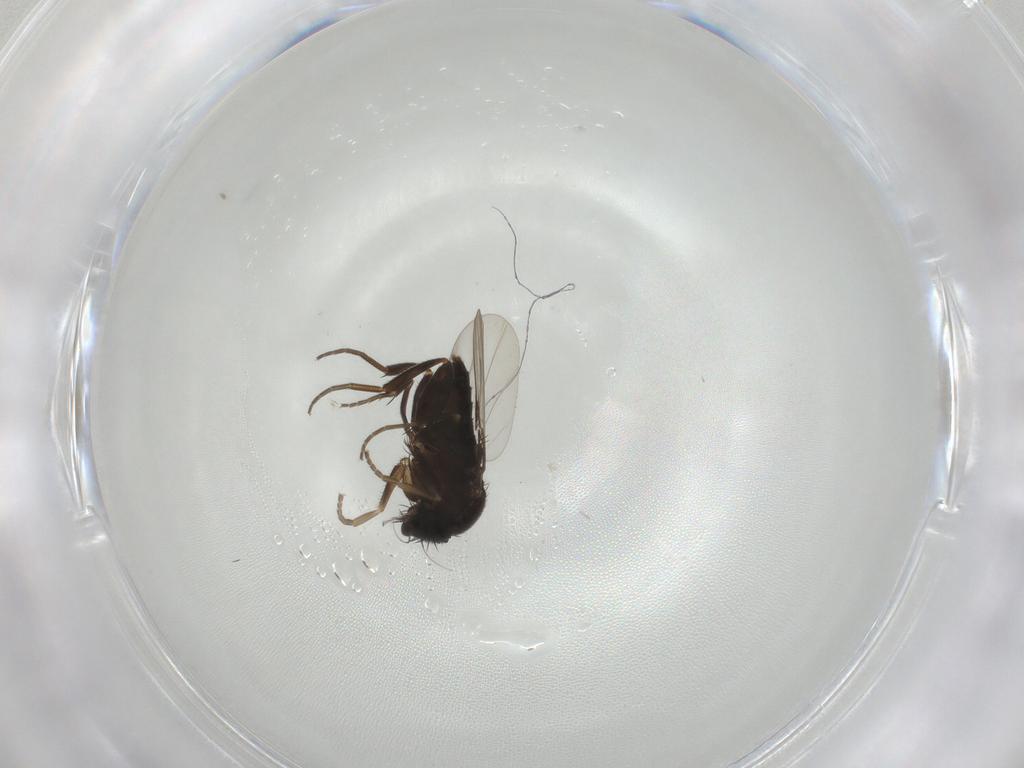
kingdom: Animalia
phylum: Arthropoda
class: Insecta
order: Diptera
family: Phoridae
